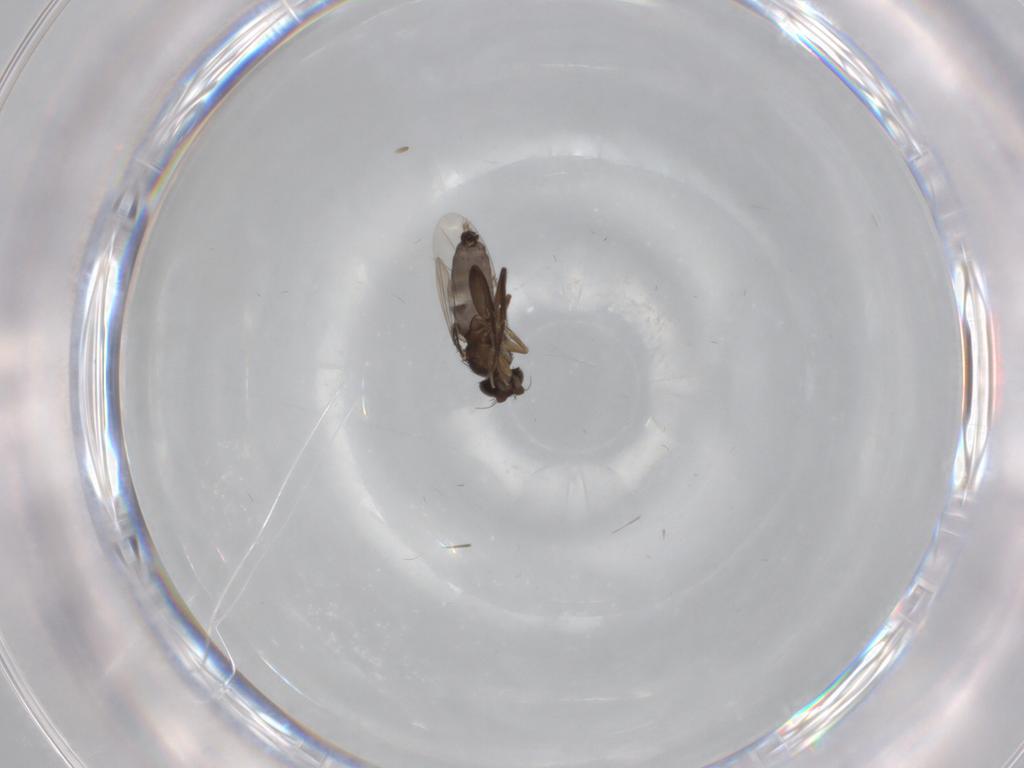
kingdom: Animalia
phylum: Arthropoda
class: Insecta
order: Diptera
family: Phoridae
